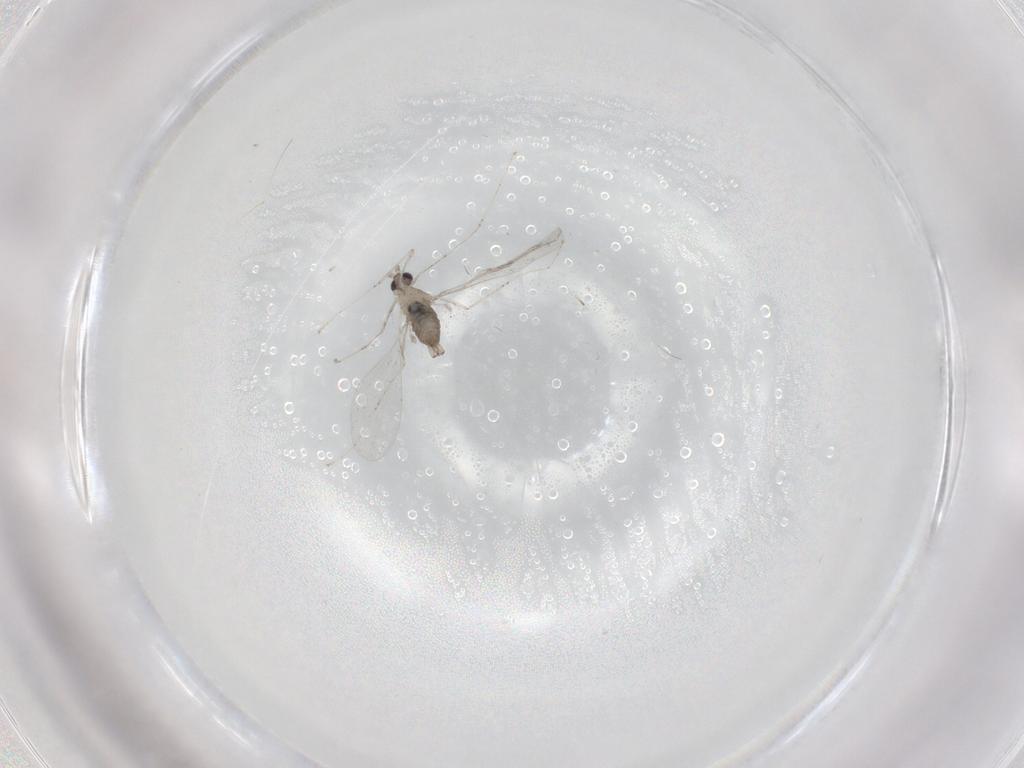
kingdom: Animalia
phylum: Arthropoda
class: Insecta
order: Diptera
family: Cecidomyiidae
